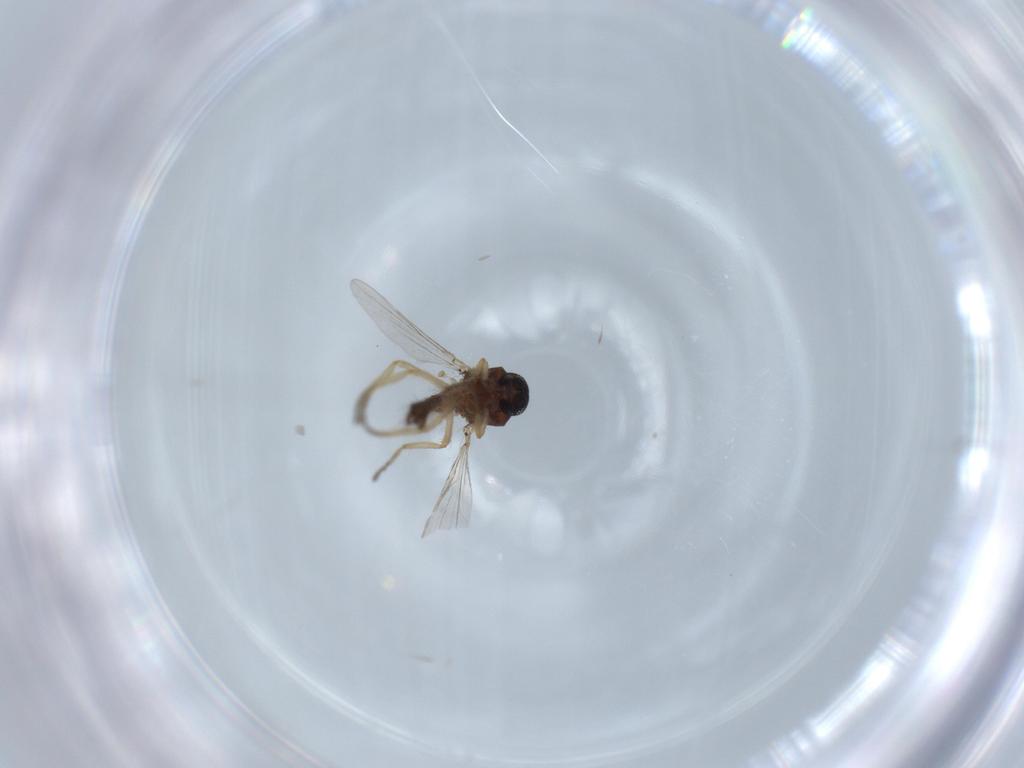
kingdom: Animalia
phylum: Arthropoda
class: Insecta
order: Diptera
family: Ceratopogonidae
